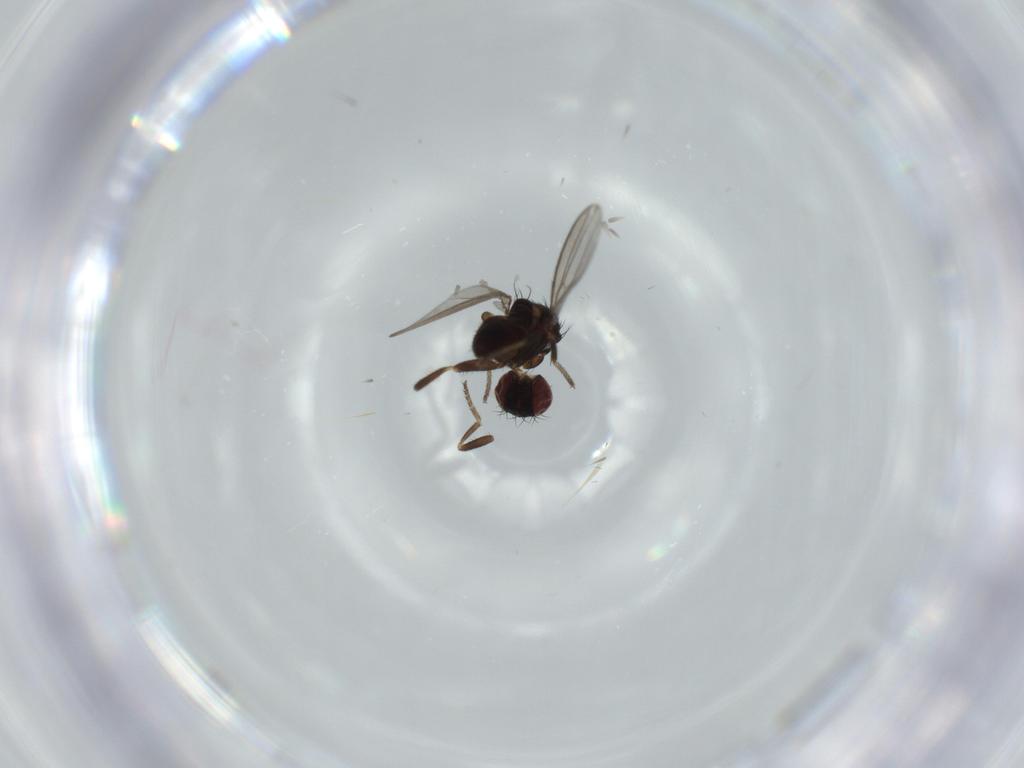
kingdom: Animalia
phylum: Arthropoda
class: Insecta
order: Diptera
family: Milichiidae
